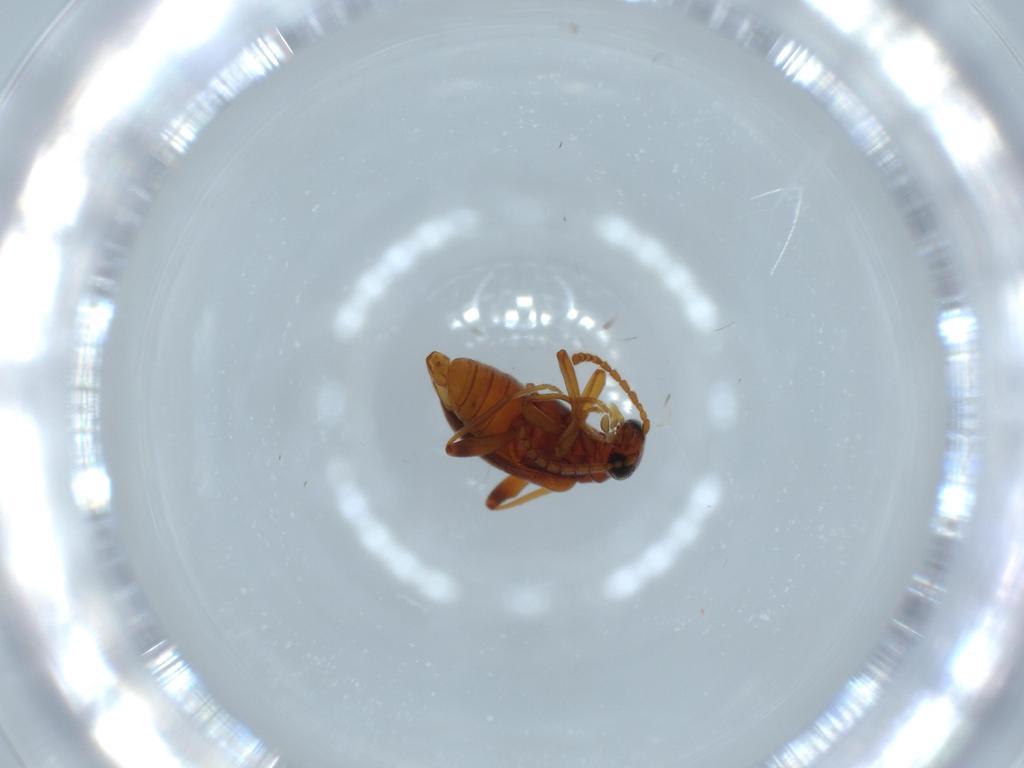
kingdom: Animalia
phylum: Arthropoda
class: Insecta
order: Coleoptera
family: Aderidae
